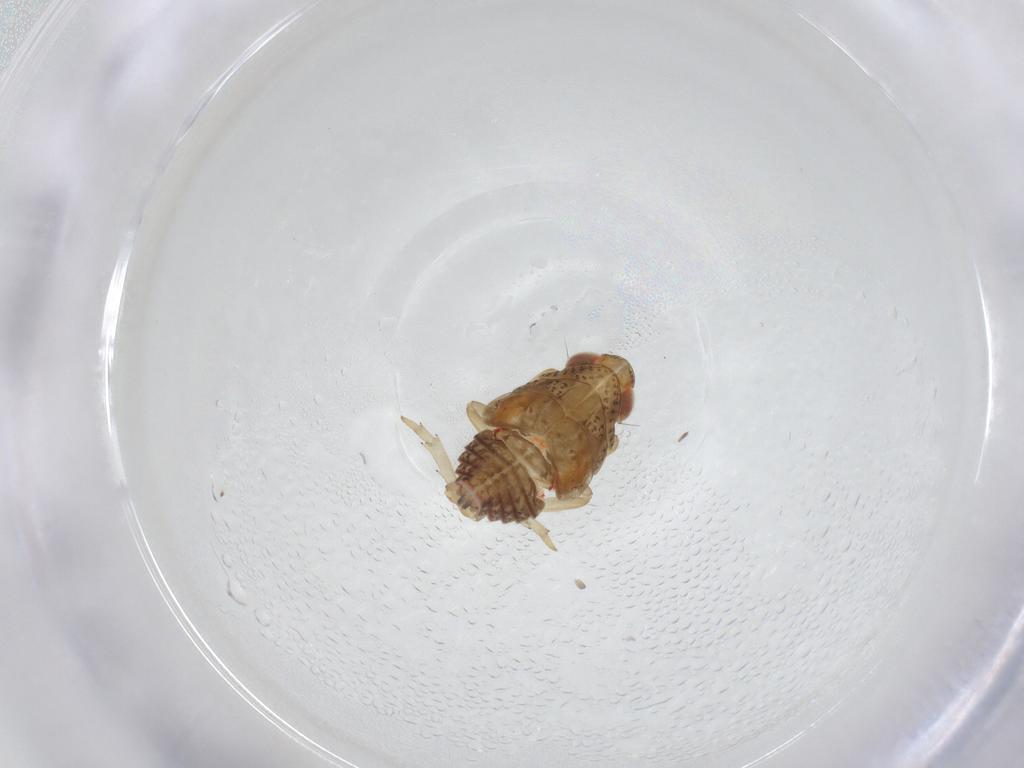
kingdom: Animalia
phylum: Arthropoda
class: Insecta
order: Hemiptera
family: Issidae
